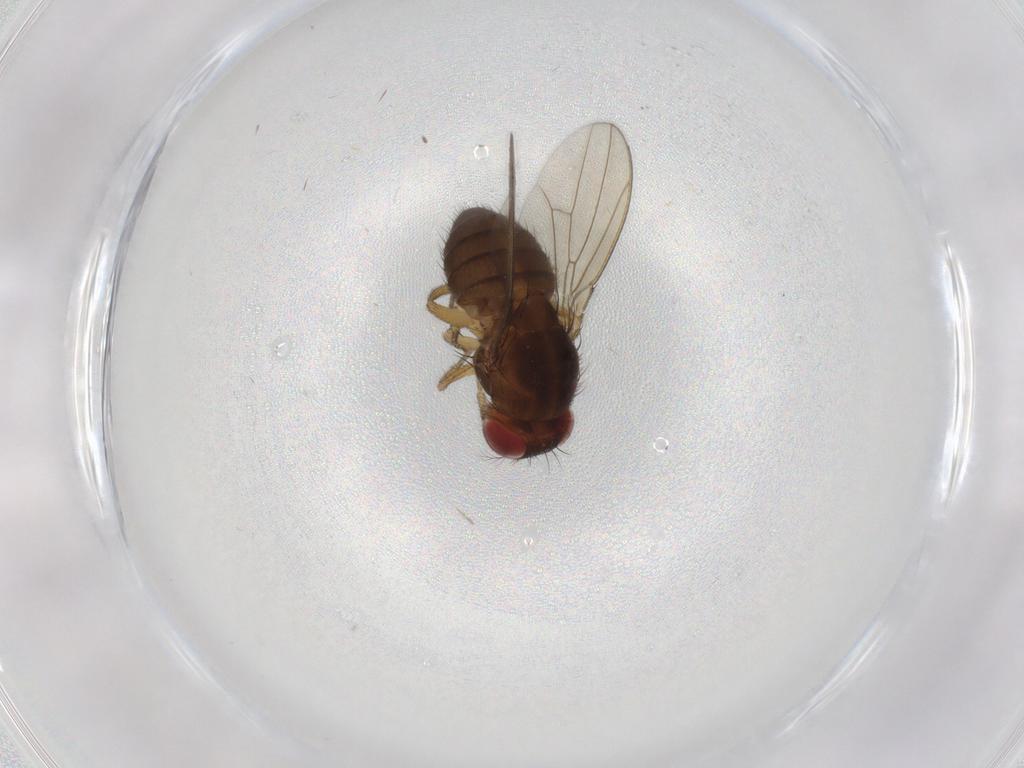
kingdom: Animalia
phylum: Arthropoda
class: Insecta
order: Diptera
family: Drosophilidae
